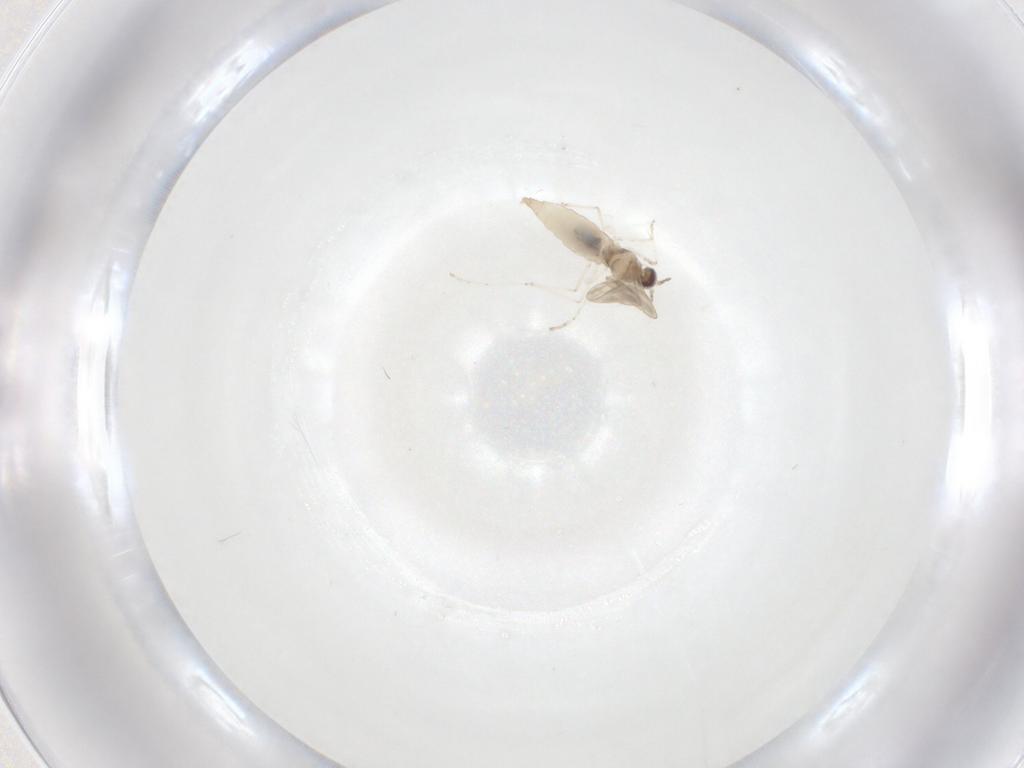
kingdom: Animalia
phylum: Arthropoda
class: Insecta
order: Diptera
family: Cecidomyiidae
